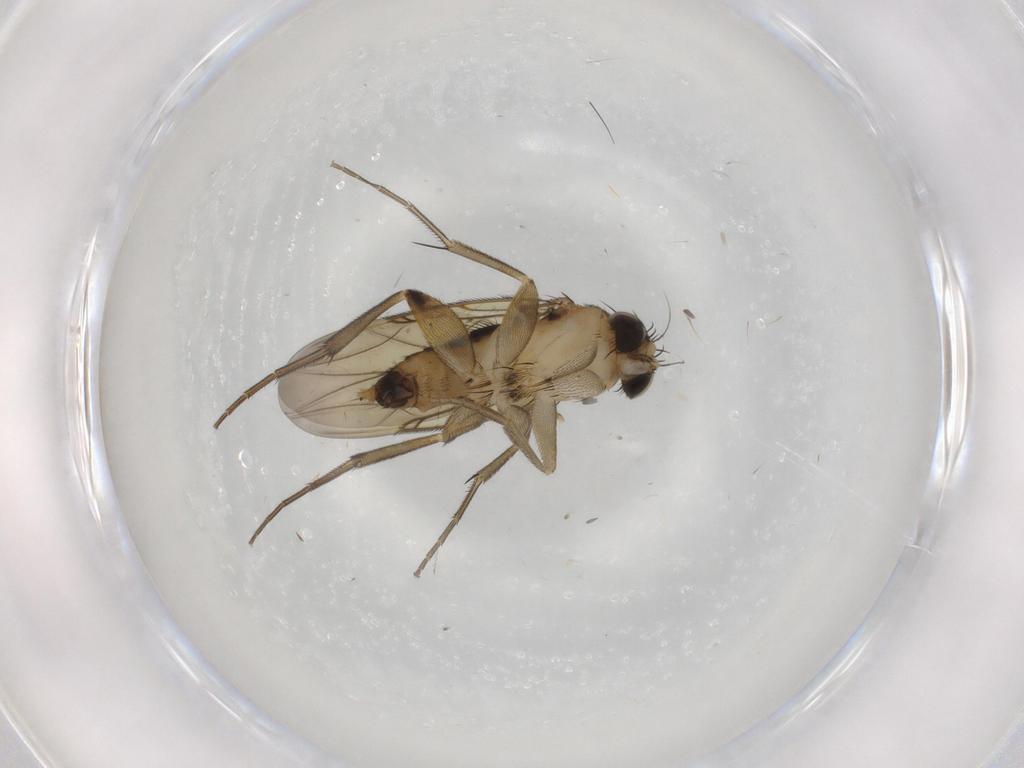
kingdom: Animalia
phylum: Arthropoda
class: Insecta
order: Diptera
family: Phoridae
